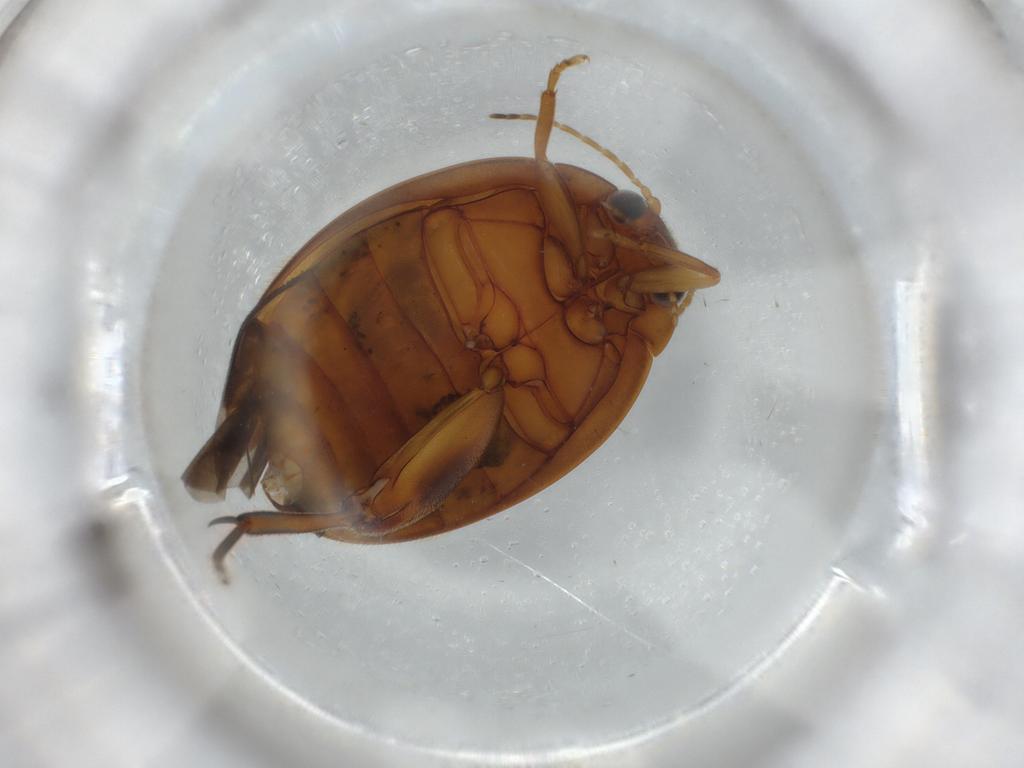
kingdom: Animalia
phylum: Arthropoda
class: Insecta
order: Coleoptera
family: Scirtidae
